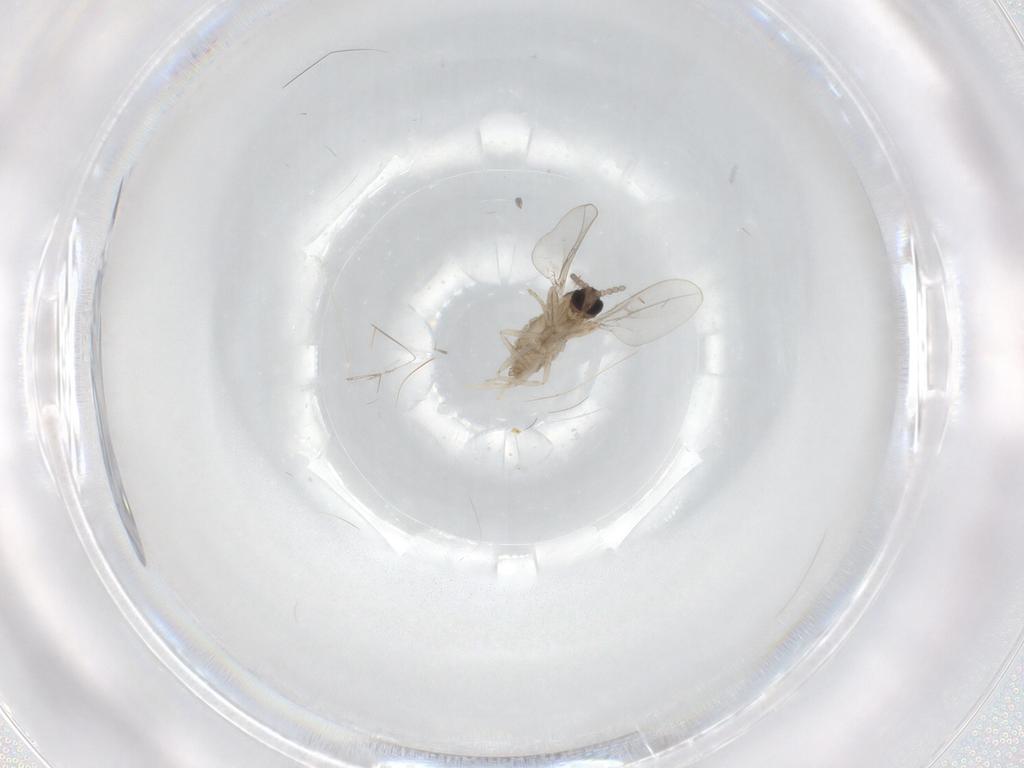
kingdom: Animalia
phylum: Arthropoda
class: Insecta
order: Diptera
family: Cecidomyiidae
